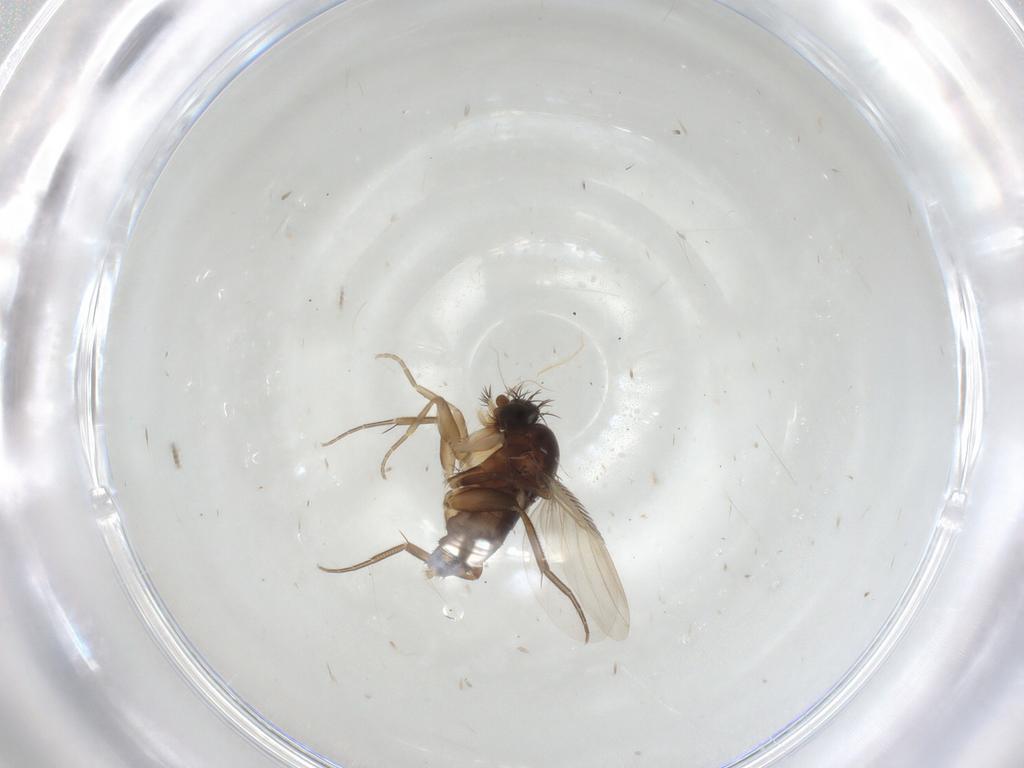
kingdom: Animalia
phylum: Arthropoda
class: Insecta
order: Diptera
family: Phoridae
